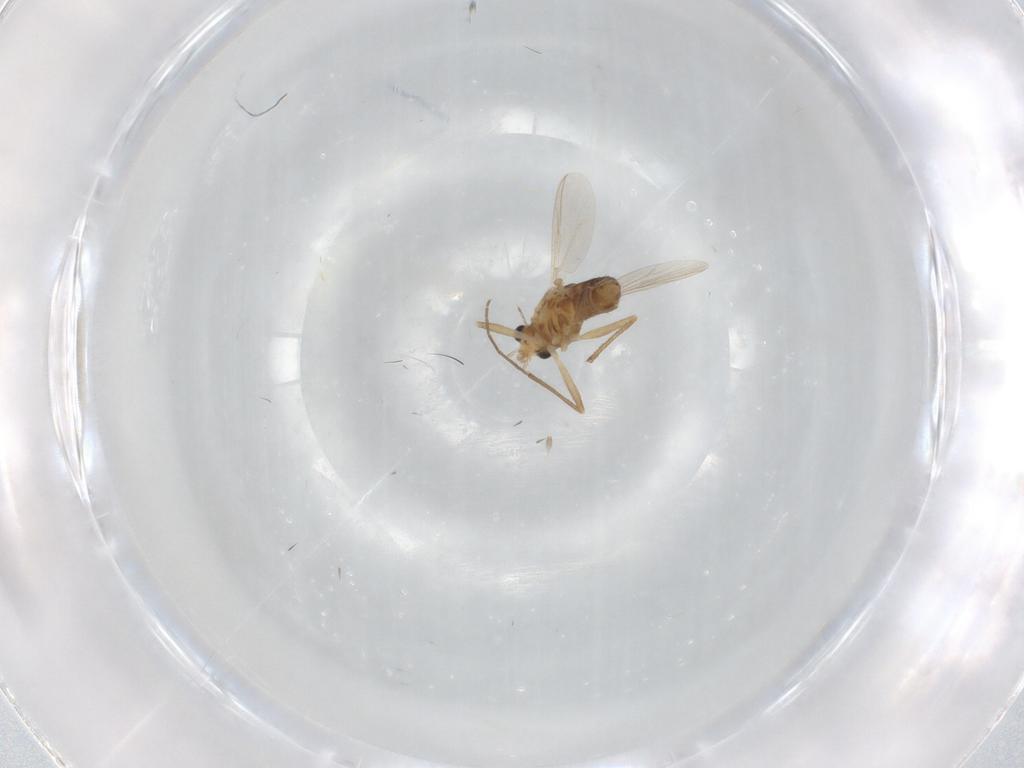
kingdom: Animalia
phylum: Arthropoda
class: Insecta
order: Diptera
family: Chironomidae
